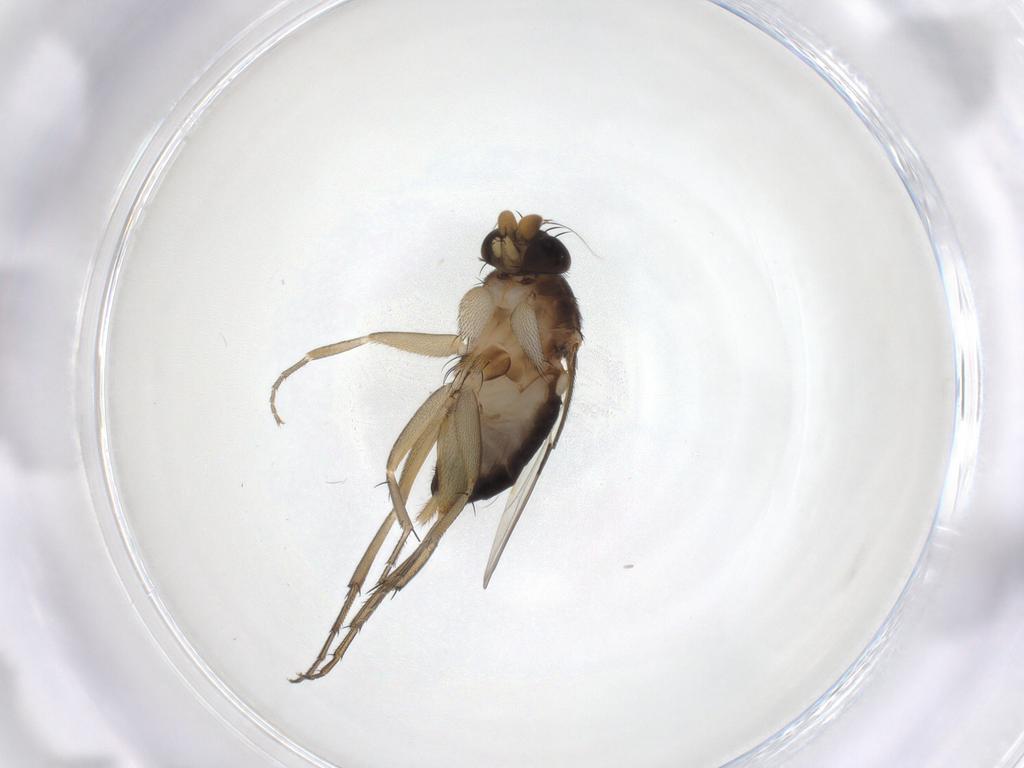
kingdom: Animalia
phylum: Arthropoda
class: Insecta
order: Diptera
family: Phoridae
